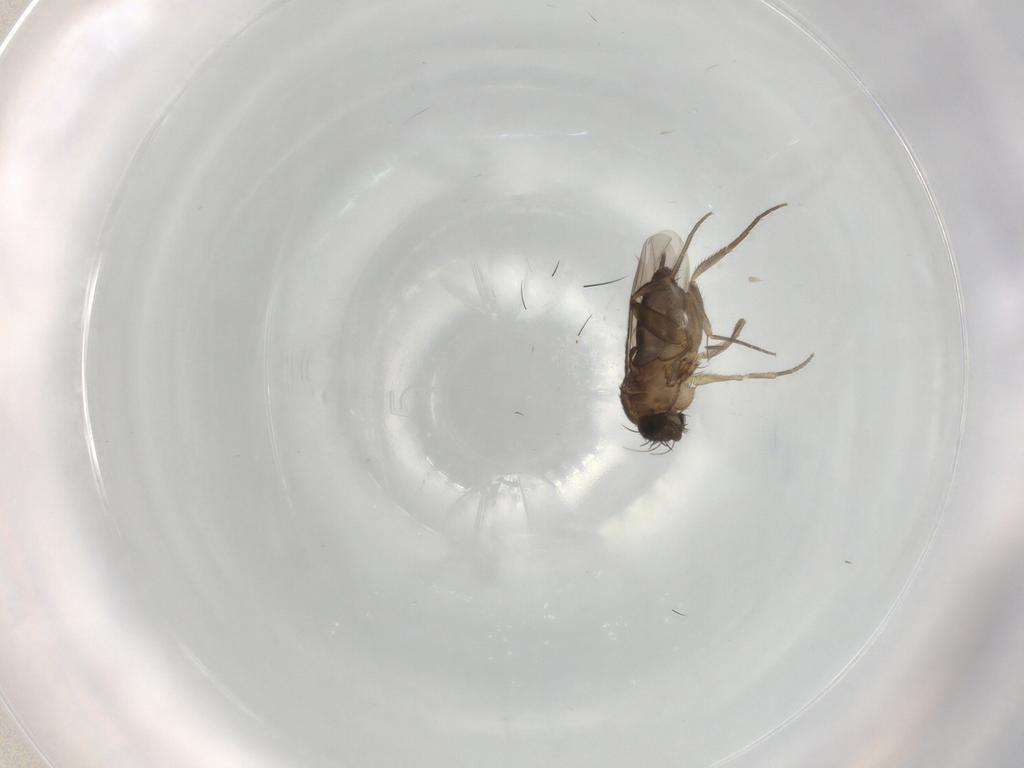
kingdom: Animalia
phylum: Arthropoda
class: Insecta
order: Diptera
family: Phoridae
